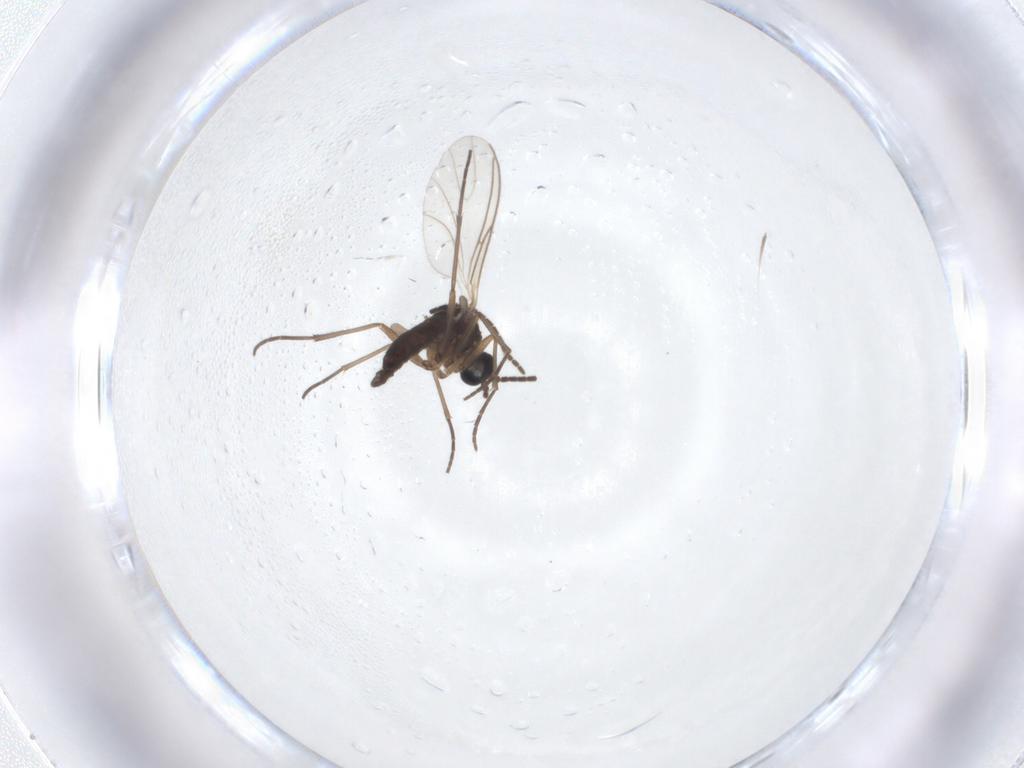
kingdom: Animalia
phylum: Arthropoda
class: Insecta
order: Diptera
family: Sciaridae
